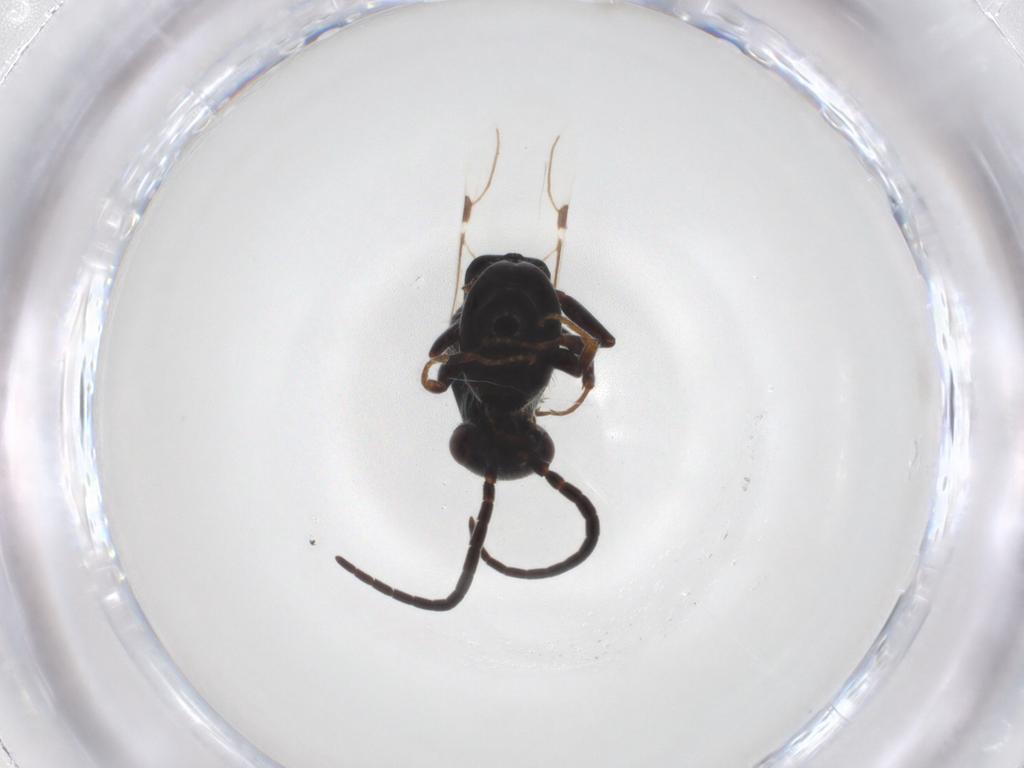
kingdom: Animalia
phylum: Arthropoda
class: Insecta
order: Hymenoptera
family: Bethylidae
